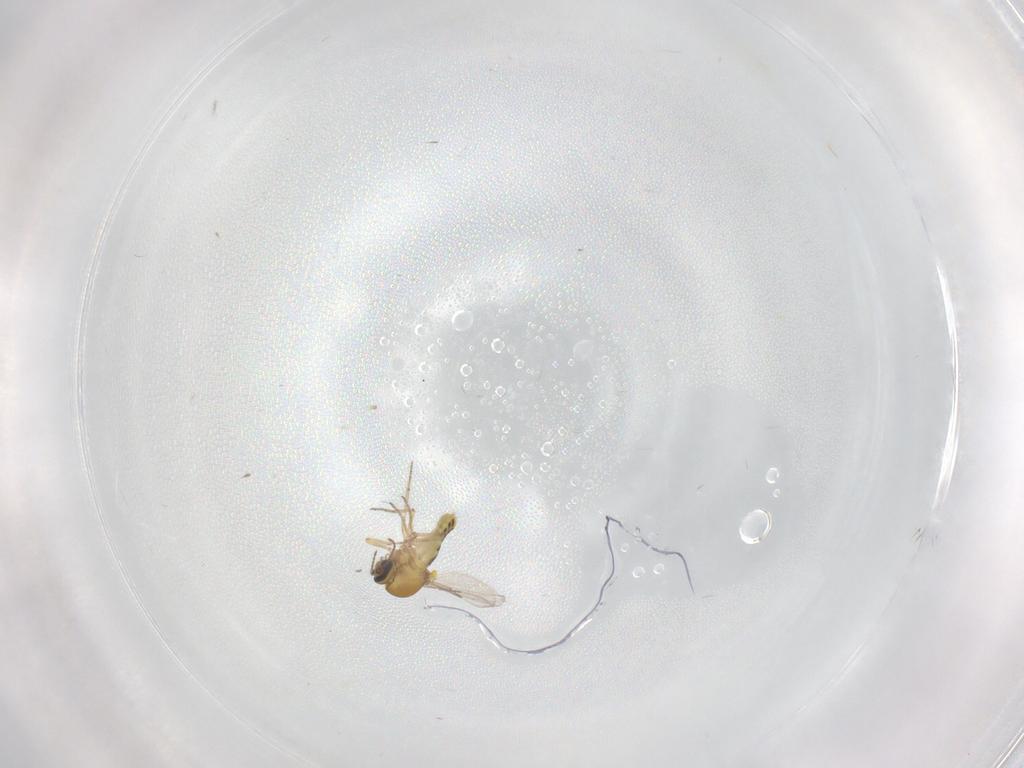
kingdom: Animalia
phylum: Arthropoda
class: Insecta
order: Diptera
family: Ceratopogonidae
